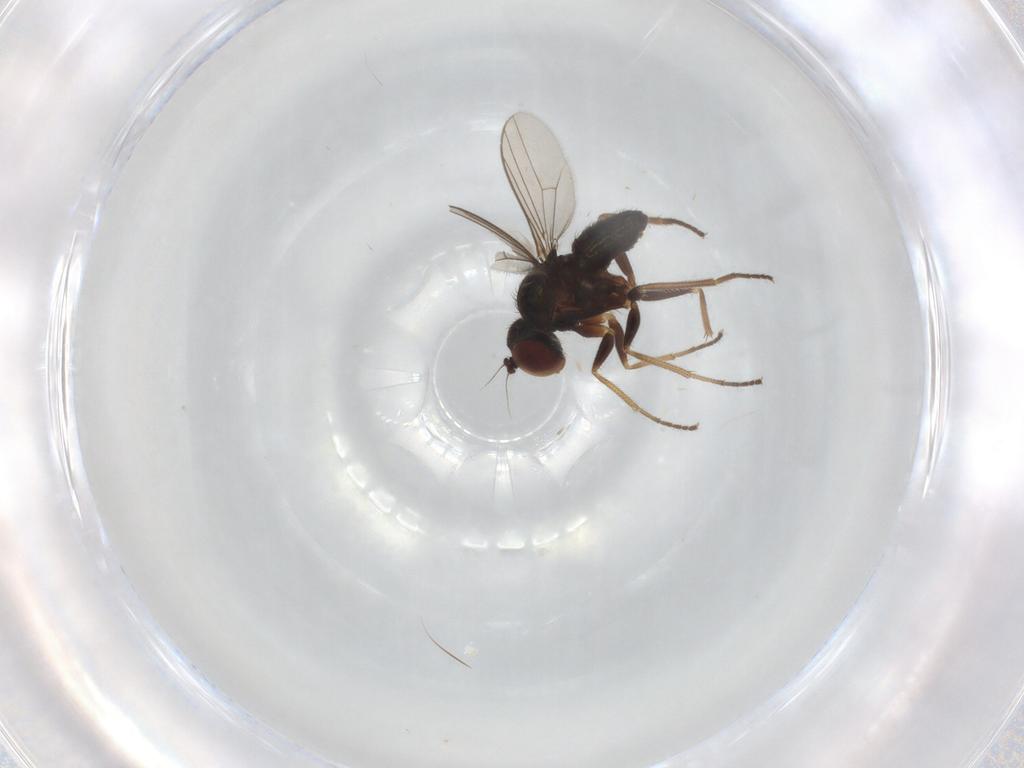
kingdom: Animalia
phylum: Arthropoda
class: Insecta
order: Diptera
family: Dolichopodidae
